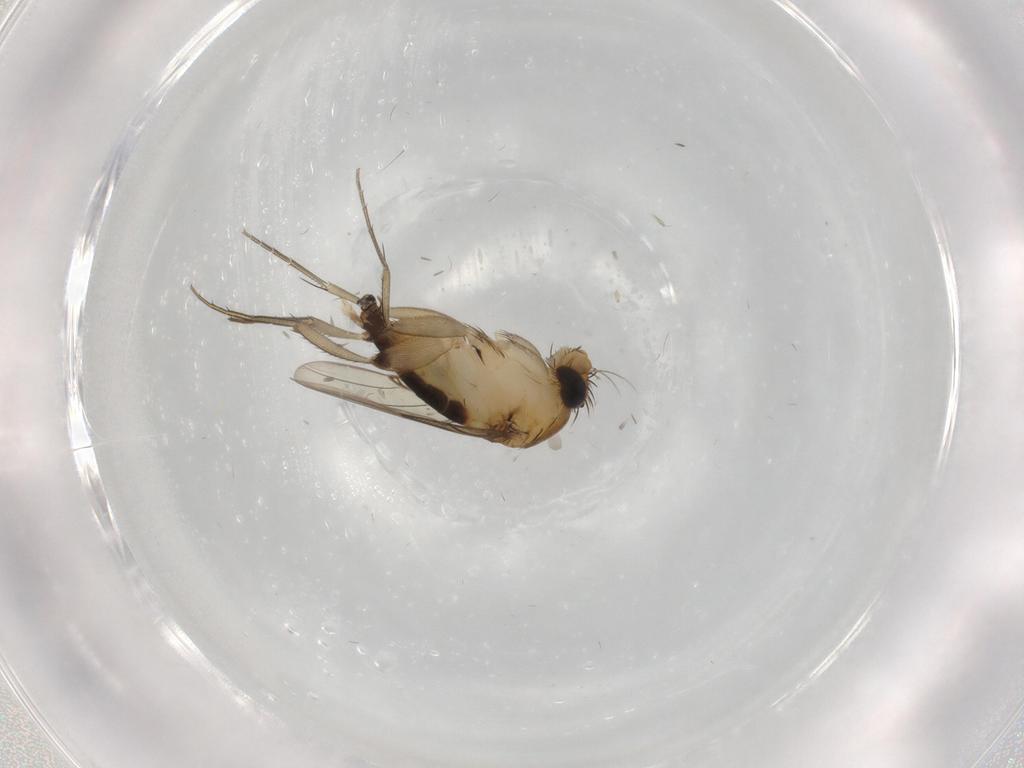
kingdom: Animalia
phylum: Arthropoda
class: Insecta
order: Diptera
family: Phoridae
